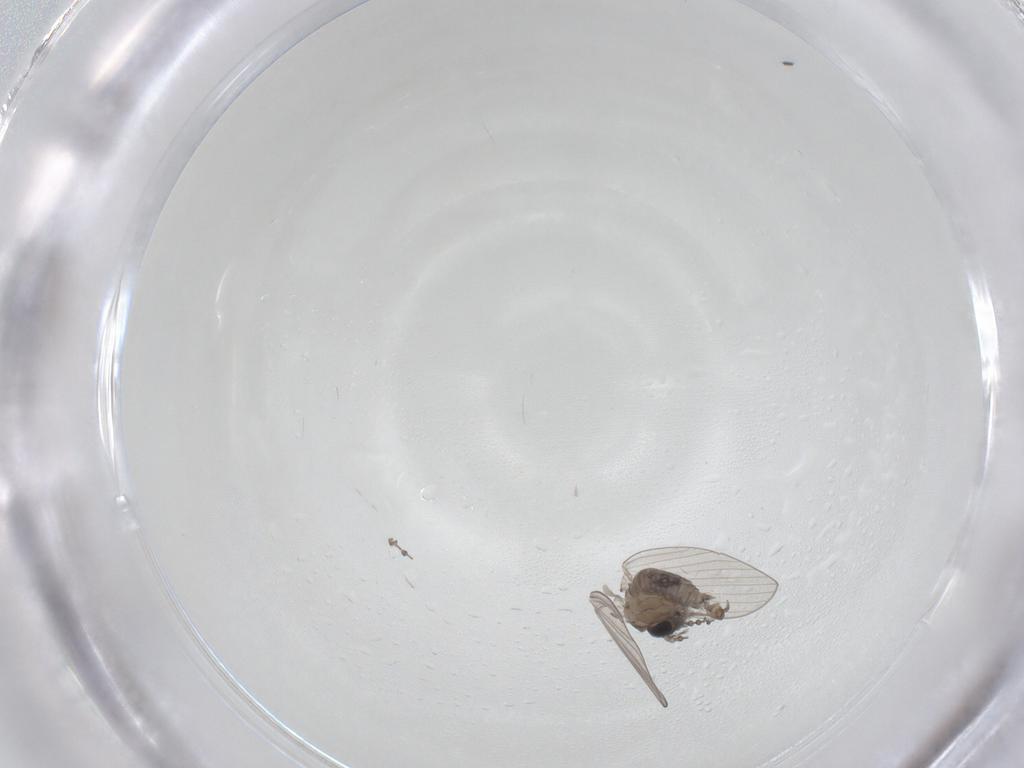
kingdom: Animalia
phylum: Arthropoda
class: Insecta
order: Diptera
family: Psychodidae
